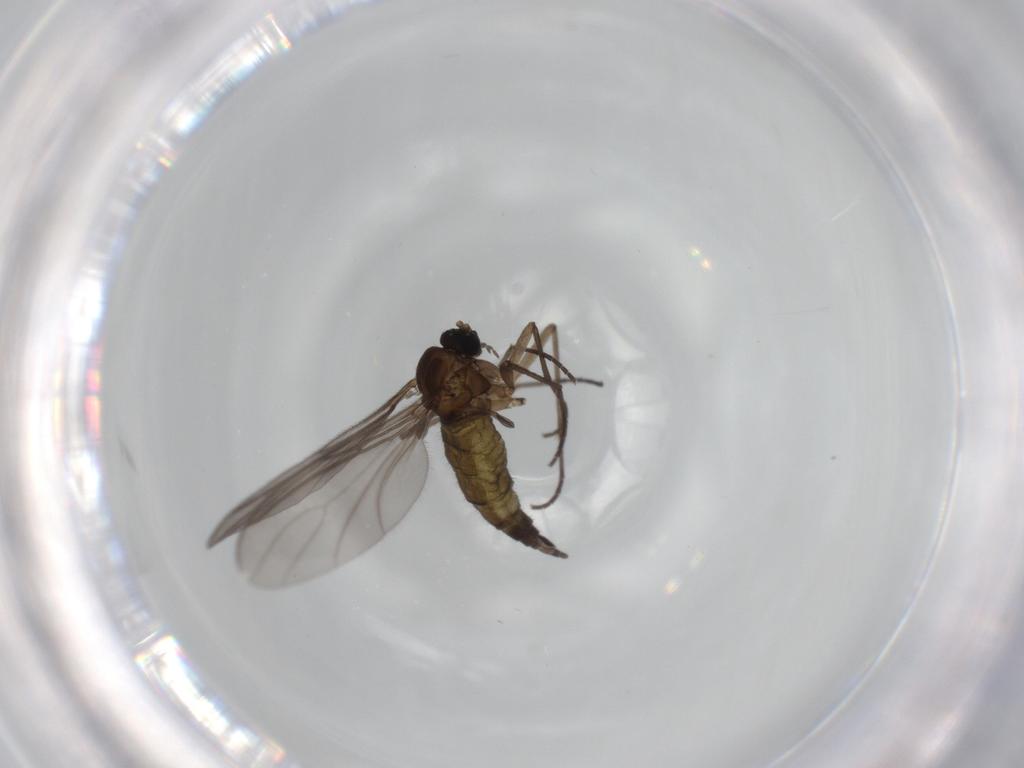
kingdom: Animalia
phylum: Arthropoda
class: Insecta
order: Diptera
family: Sciaridae
